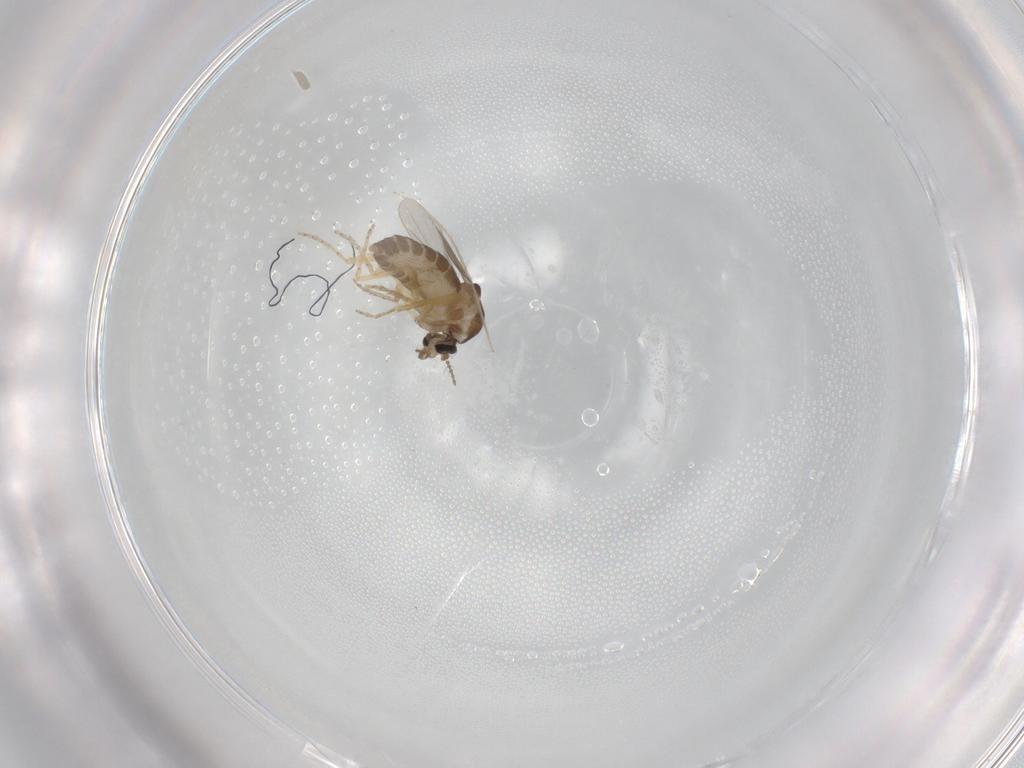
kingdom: Animalia
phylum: Arthropoda
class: Insecta
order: Diptera
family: Ceratopogonidae
